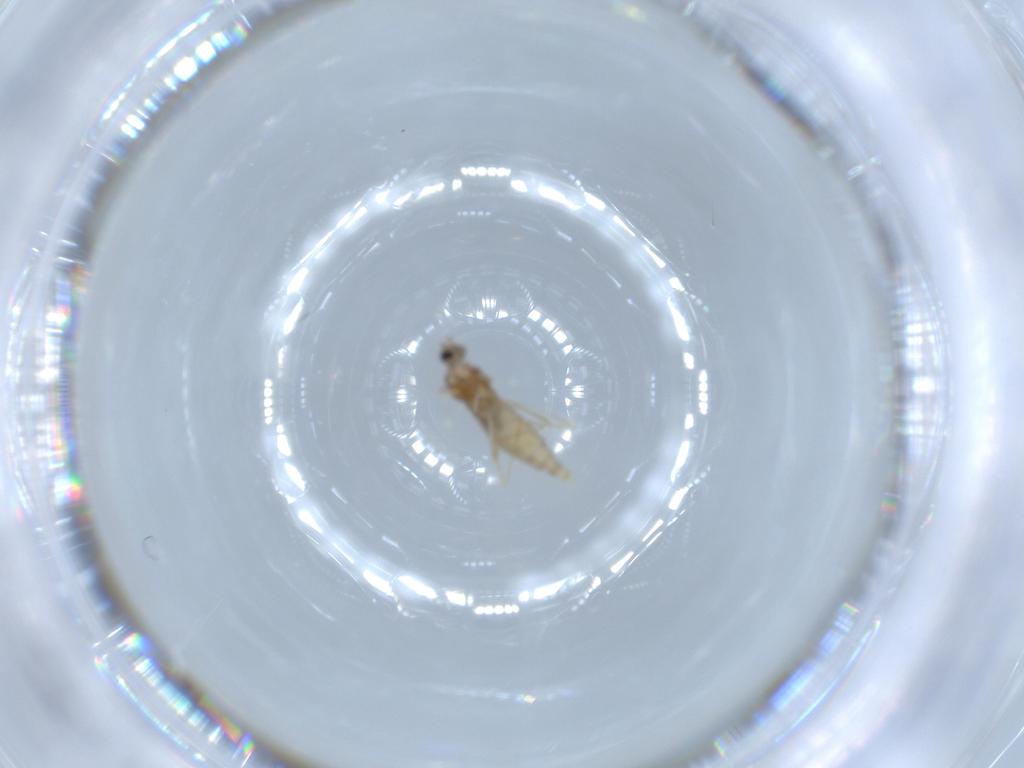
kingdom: Animalia
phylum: Arthropoda
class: Insecta
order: Diptera
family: Cecidomyiidae
